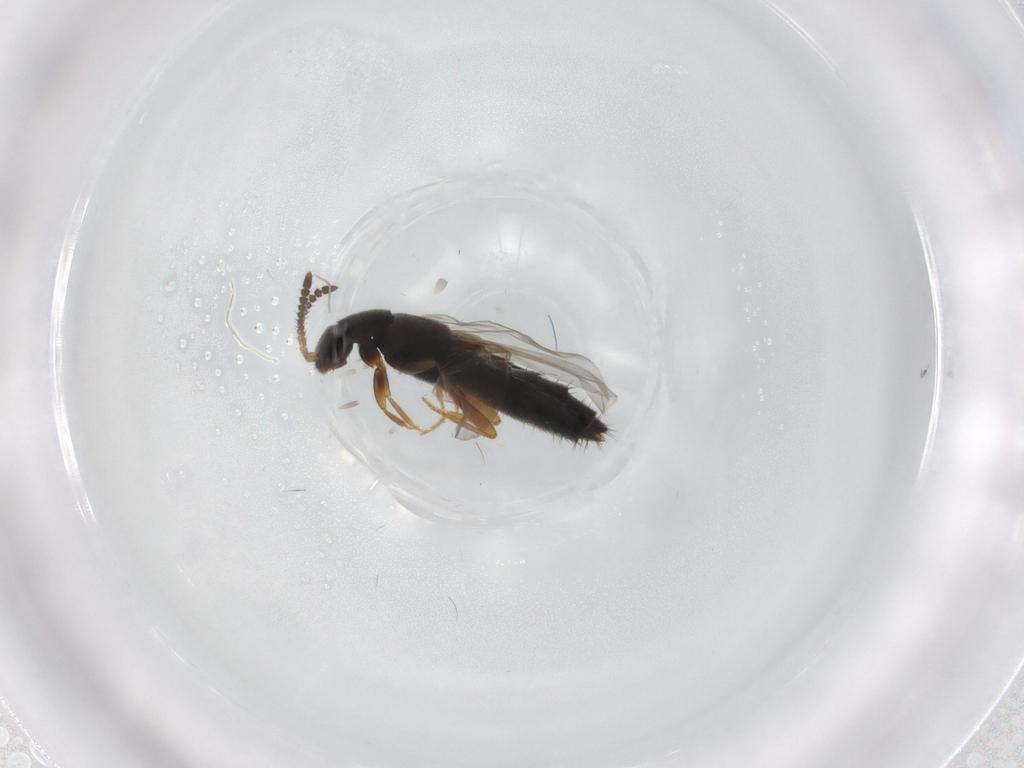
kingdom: Animalia
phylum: Arthropoda
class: Insecta
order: Coleoptera
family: Staphylinidae
